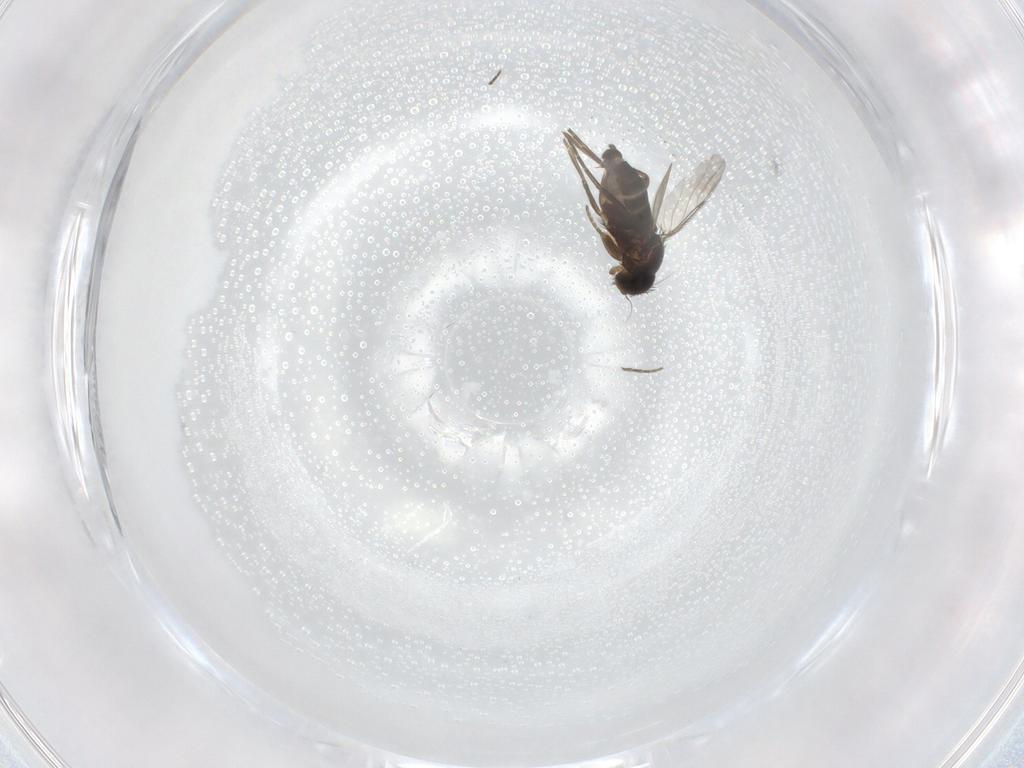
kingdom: Animalia
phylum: Arthropoda
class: Insecta
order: Diptera
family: Phoridae
